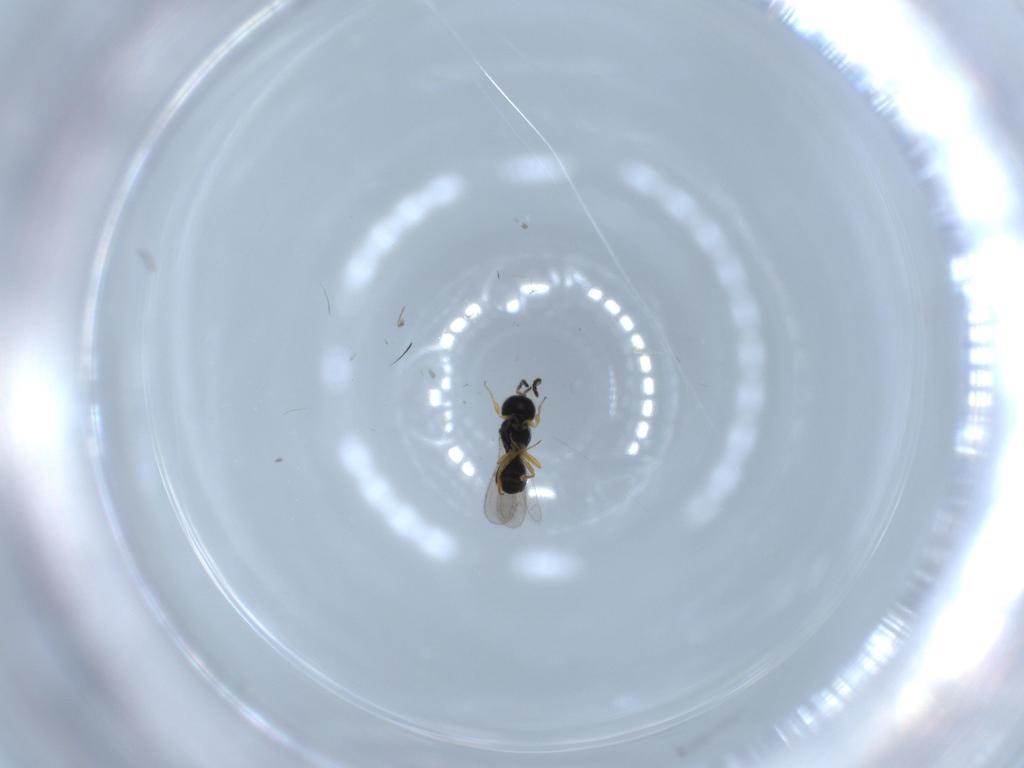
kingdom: Animalia
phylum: Arthropoda
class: Insecta
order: Hymenoptera
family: Scelionidae
